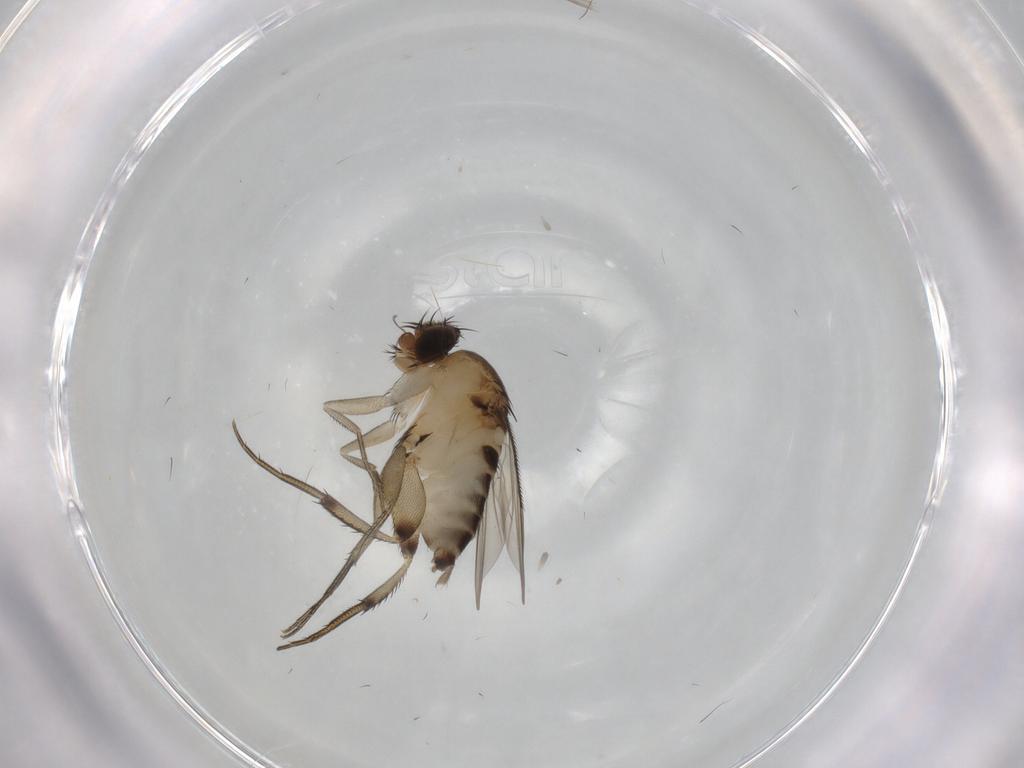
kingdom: Animalia
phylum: Arthropoda
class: Insecta
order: Diptera
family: Phoridae
